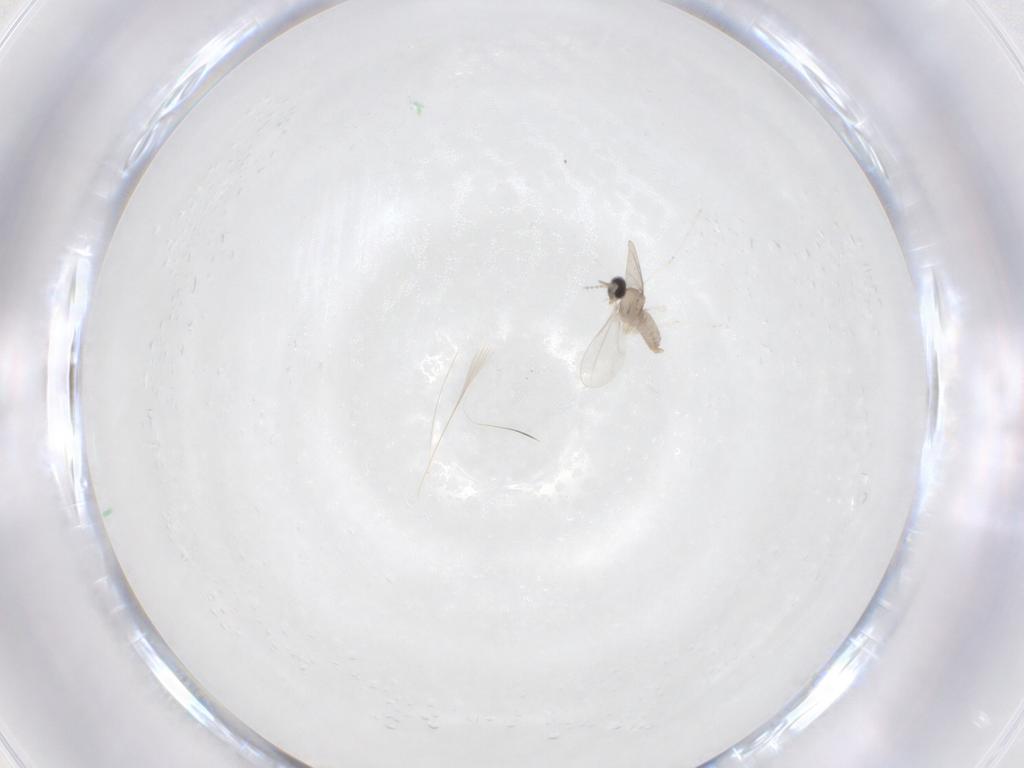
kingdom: Animalia
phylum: Arthropoda
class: Insecta
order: Diptera
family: Cecidomyiidae
